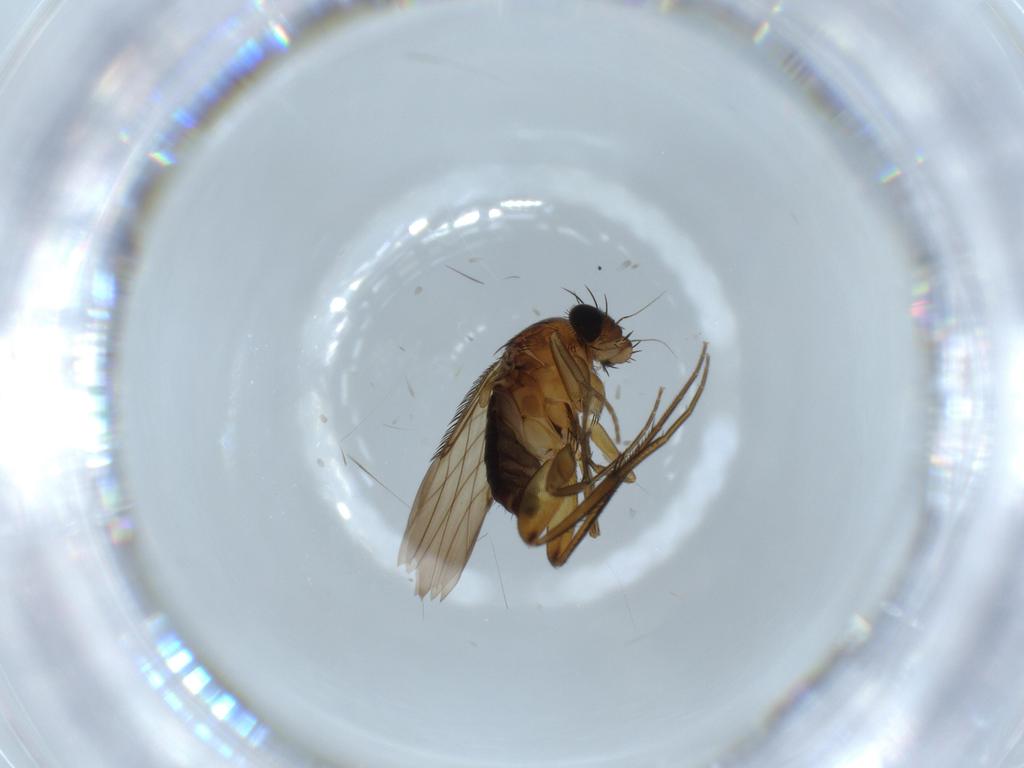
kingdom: Animalia
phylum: Arthropoda
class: Insecta
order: Diptera
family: Phoridae
